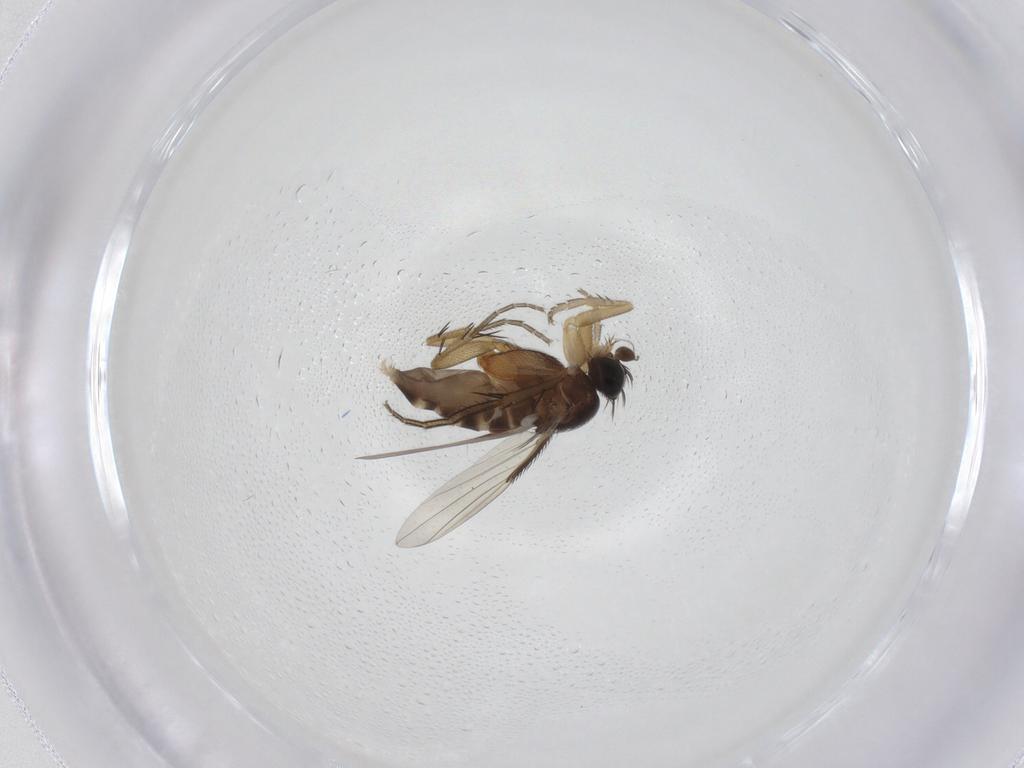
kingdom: Animalia
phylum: Arthropoda
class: Insecta
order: Diptera
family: Phoridae
